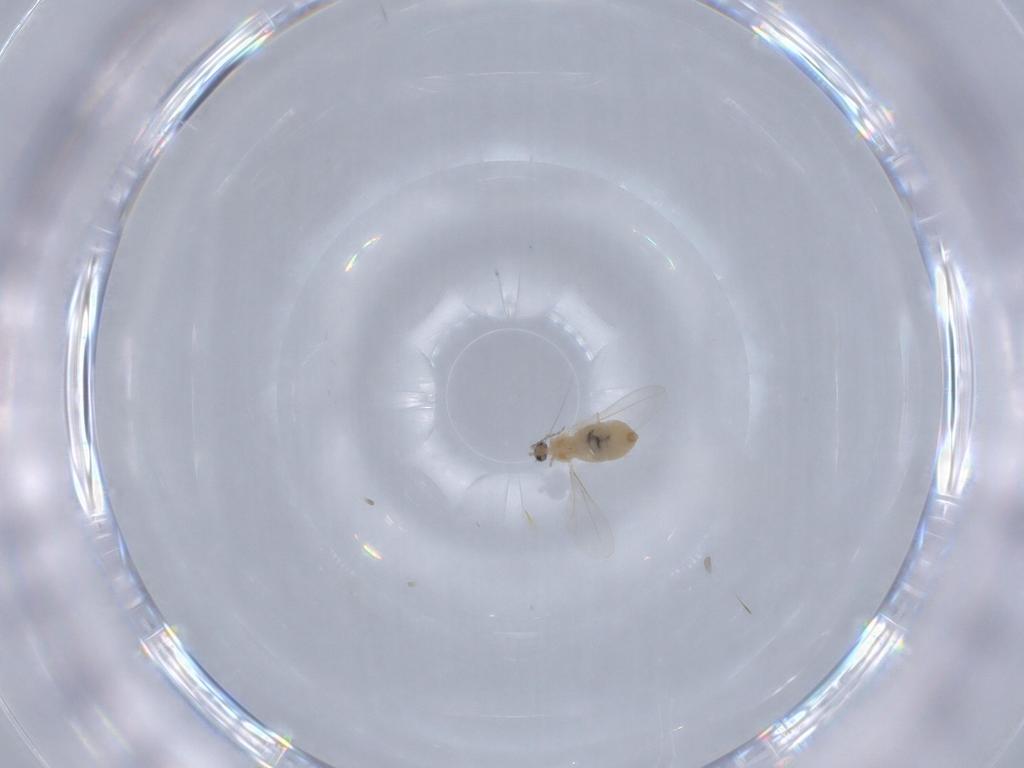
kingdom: Animalia
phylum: Arthropoda
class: Insecta
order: Diptera
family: Cecidomyiidae
